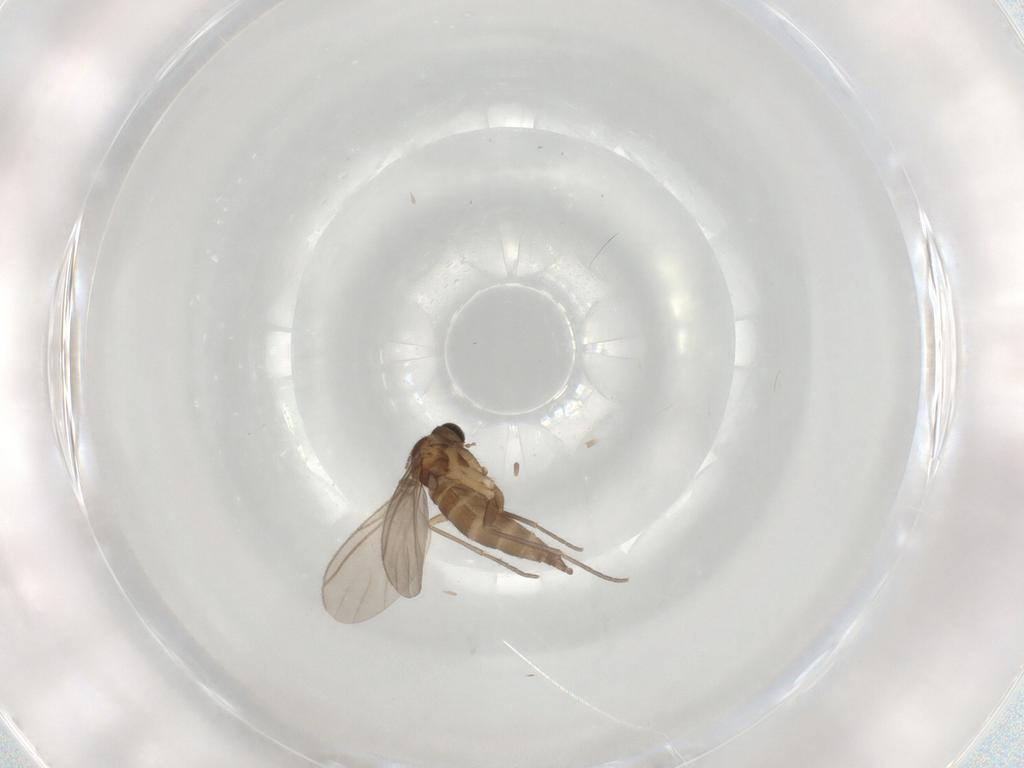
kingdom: Animalia
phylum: Arthropoda
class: Insecta
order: Diptera
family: Sciaridae
